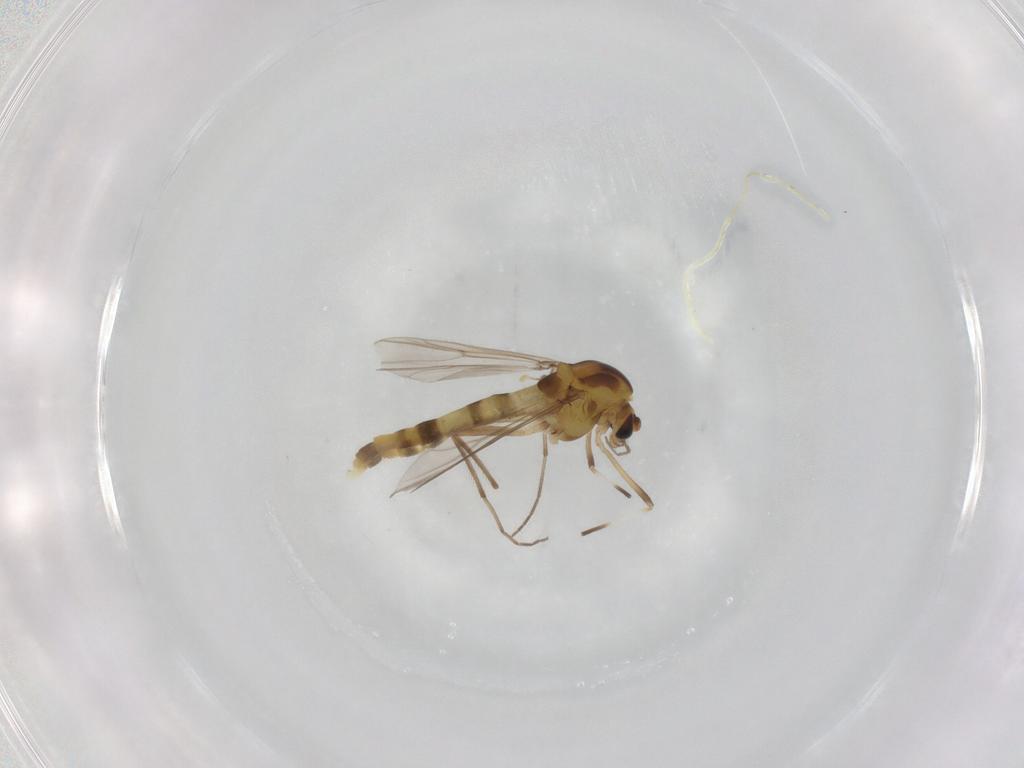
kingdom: Animalia
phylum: Arthropoda
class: Insecta
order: Diptera
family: Chironomidae
